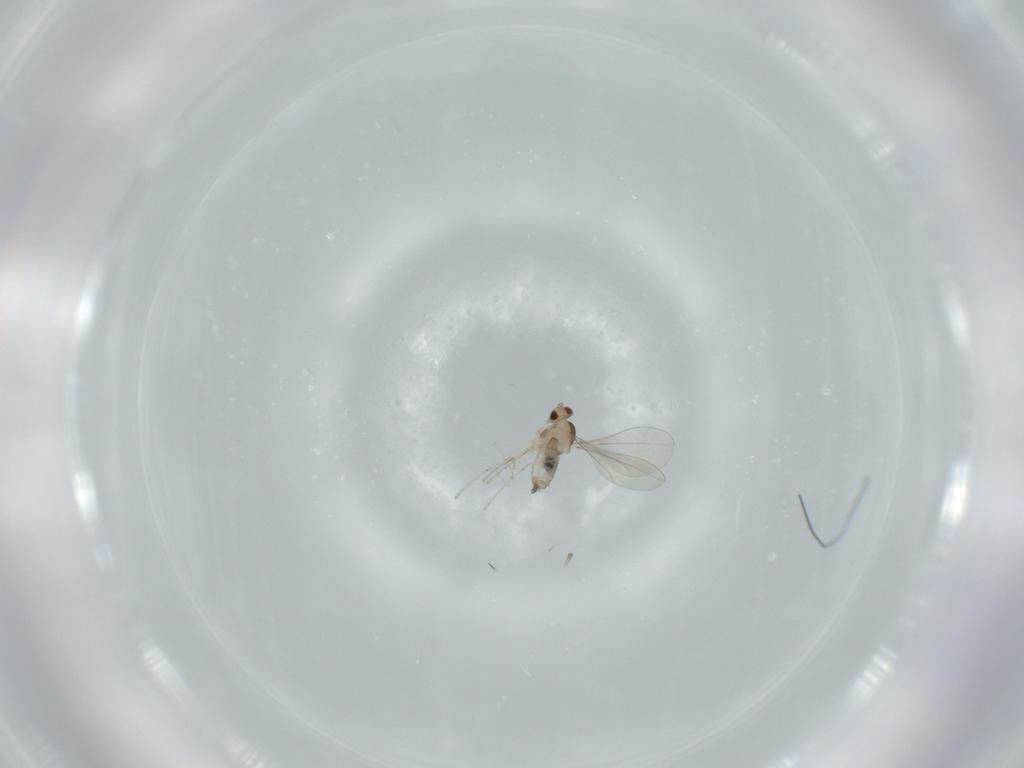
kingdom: Animalia
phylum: Arthropoda
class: Insecta
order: Diptera
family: Cecidomyiidae
